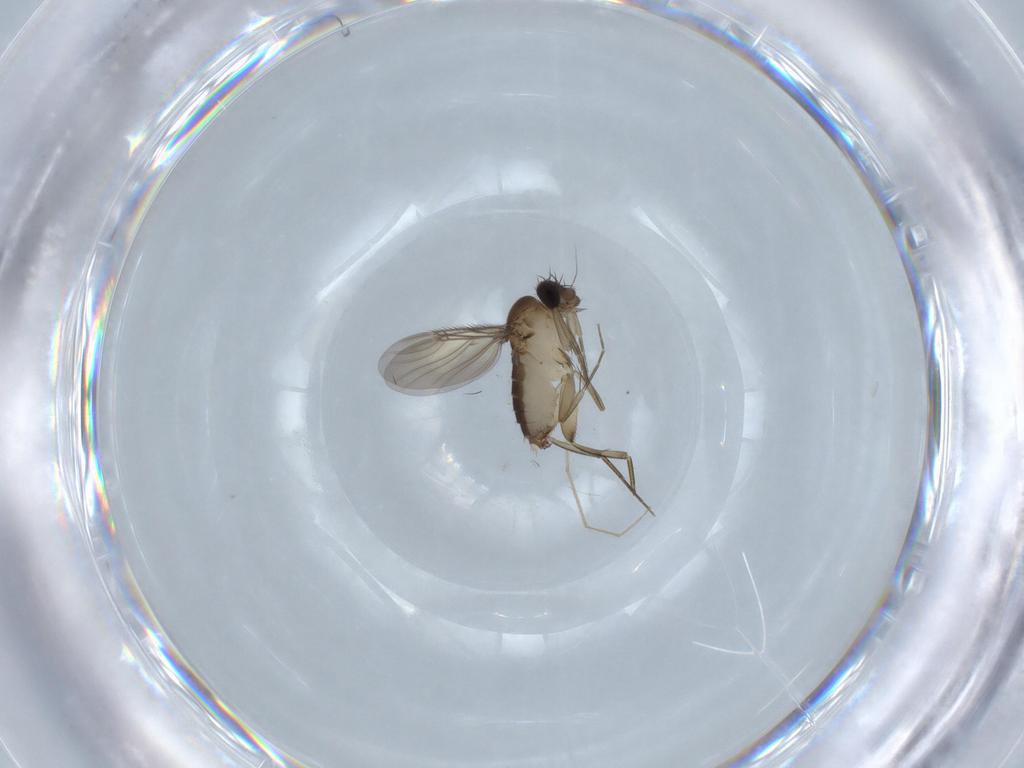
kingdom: Animalia
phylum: Arthropoda
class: Insecta
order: Diptera
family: Phoridae
